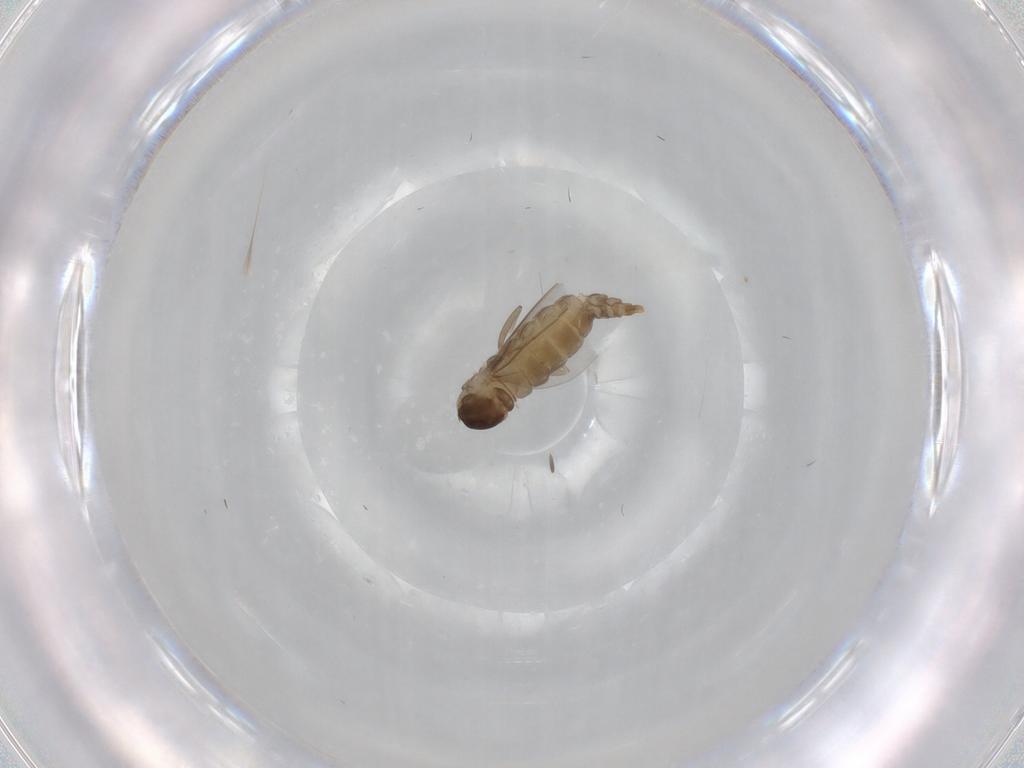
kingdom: Animalia
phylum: Arthropoda
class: Insecta
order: Diptera
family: Cecidomyiidae
